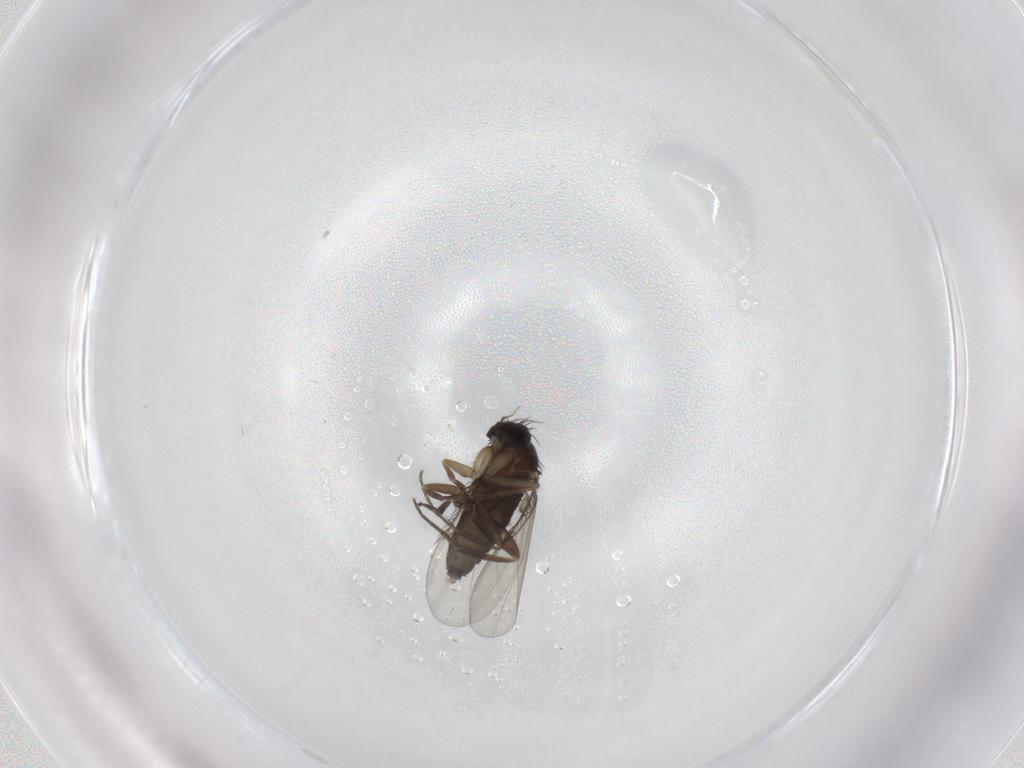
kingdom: Animalia
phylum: Arthropoda
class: Insecta
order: Diptera
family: Phoridae
